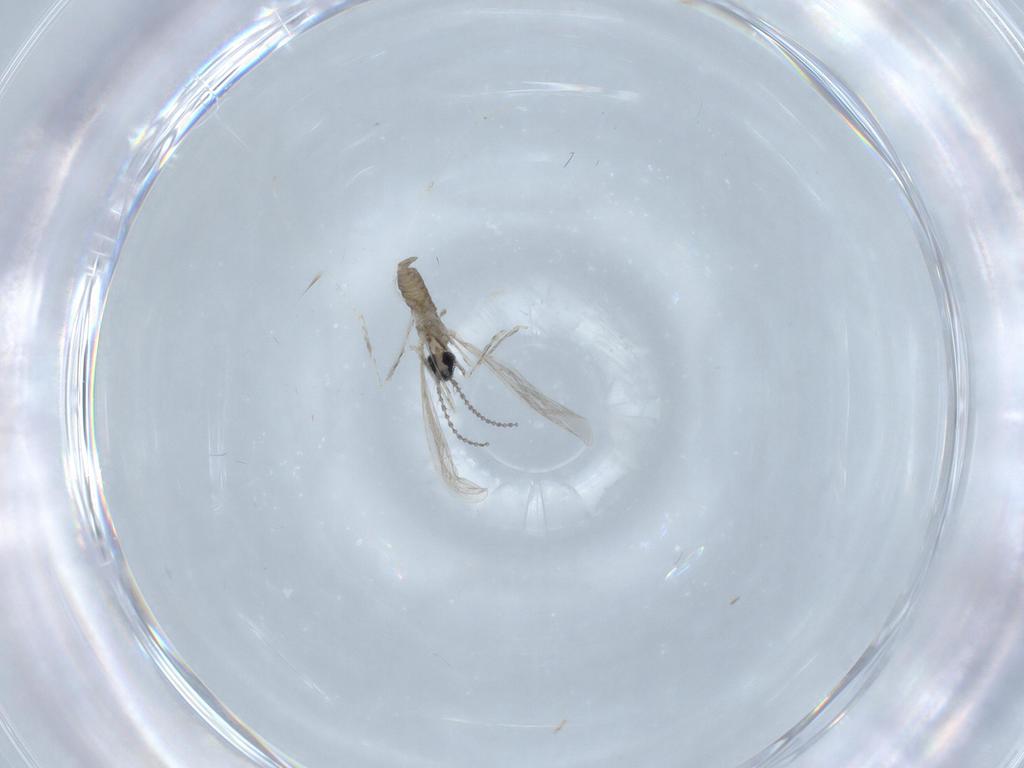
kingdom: Animalia
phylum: Arthropoda
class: Insecta
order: Diptera
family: Cecidomyiidae
